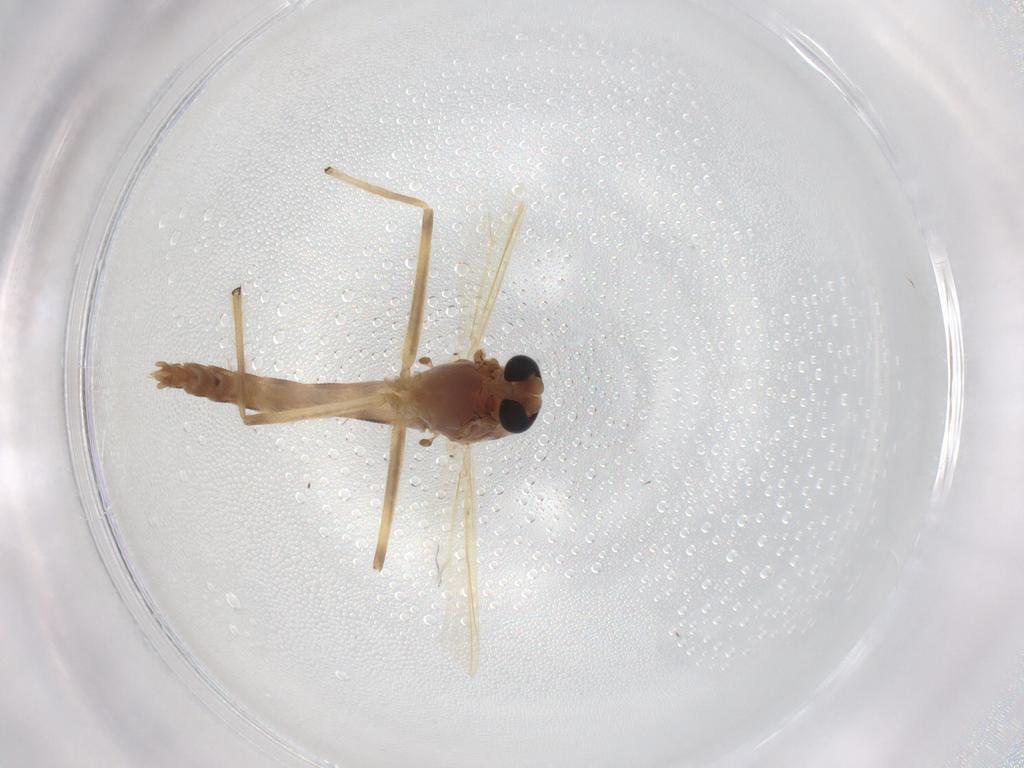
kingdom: Animalia
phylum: Arthropoda
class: Insecta
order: Diptera
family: Chironomidae
